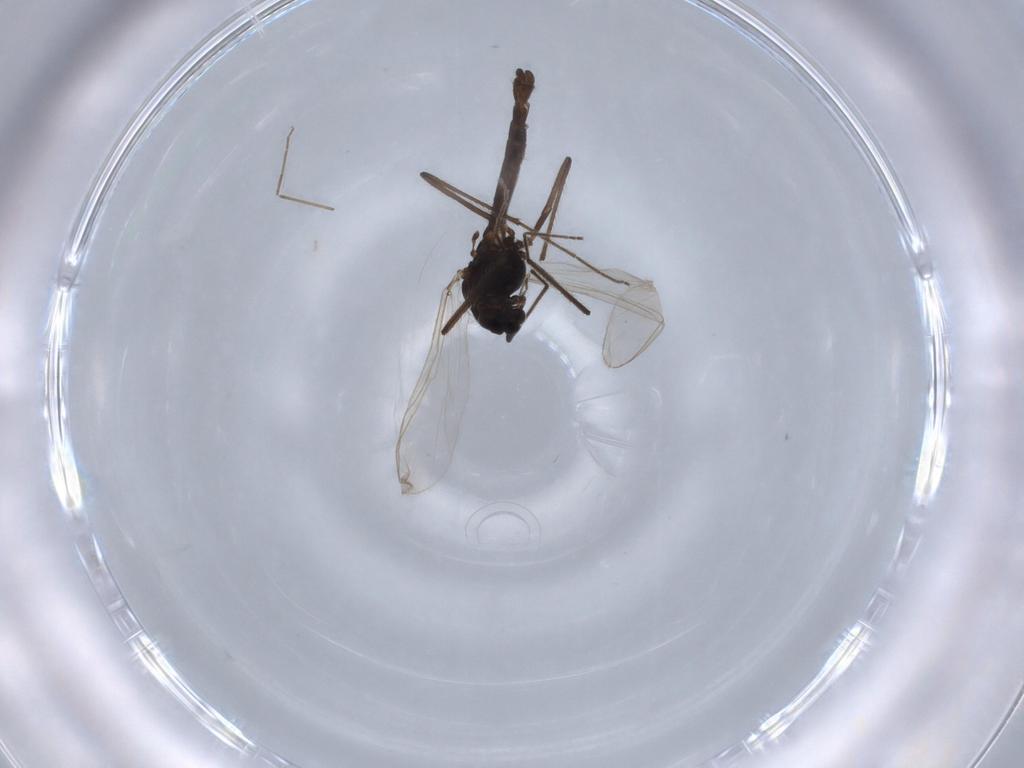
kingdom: Animalia
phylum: Arthropoda
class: Insecta
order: Diptera
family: Chironomidae
